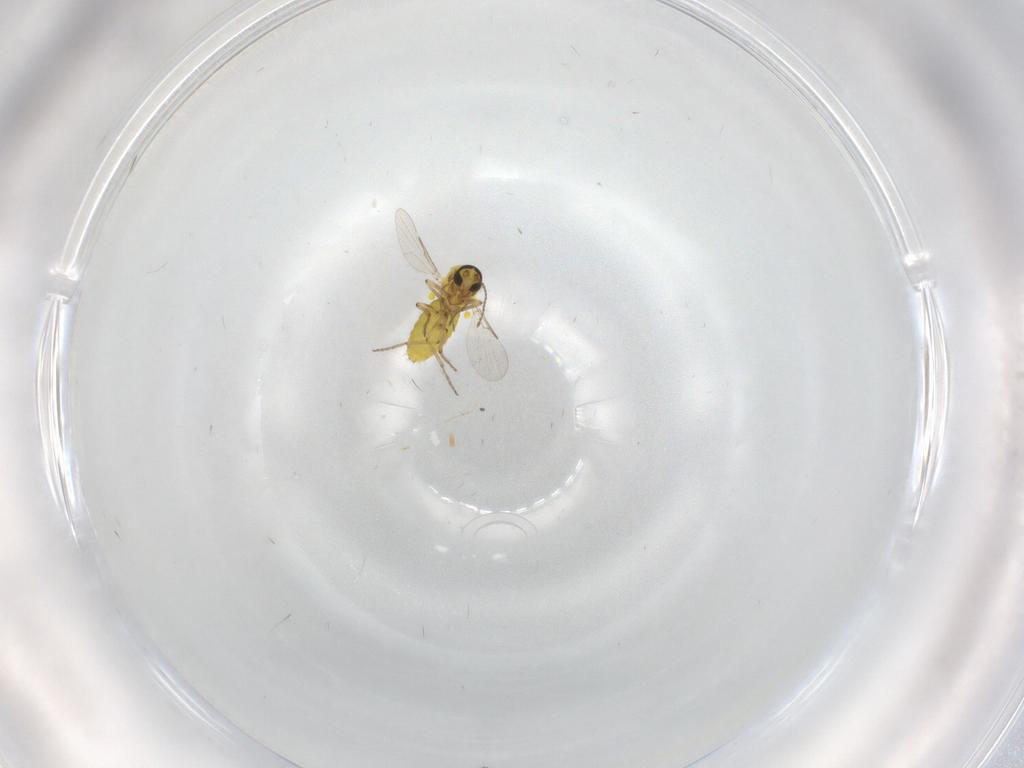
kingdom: Animalia
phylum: Arthropoda
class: Insecta
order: Diptera
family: Ceratopogonidae
